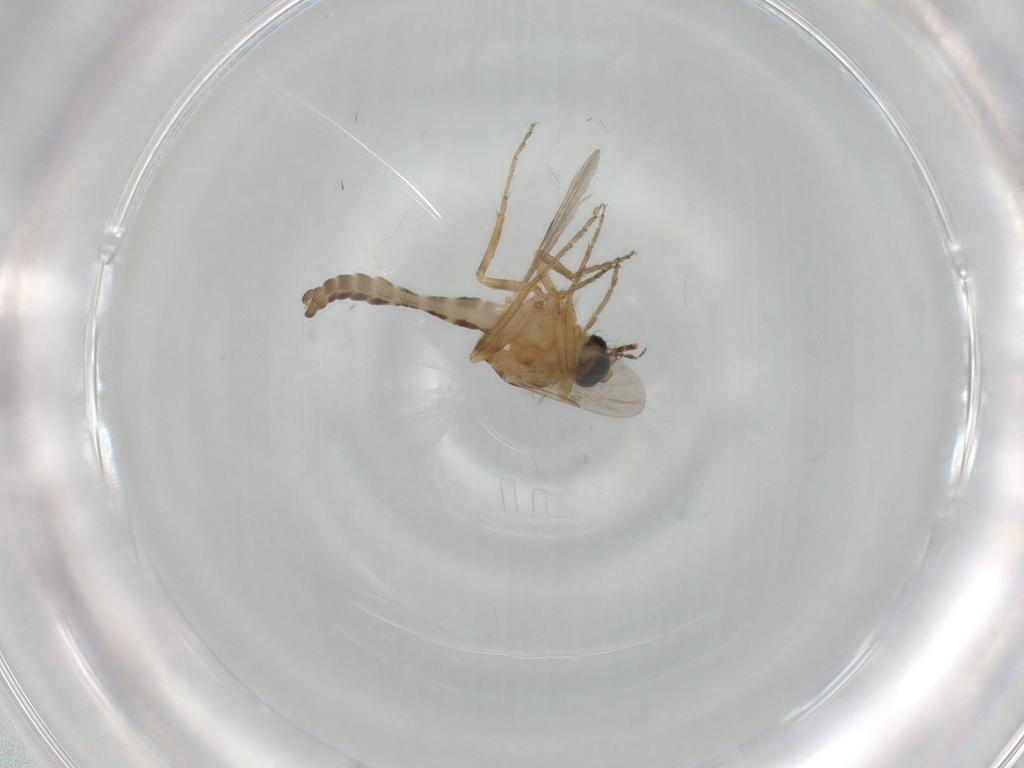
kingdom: Animalia
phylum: Arthropoda
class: Insecta
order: Diptera
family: Ceratopogonidae
